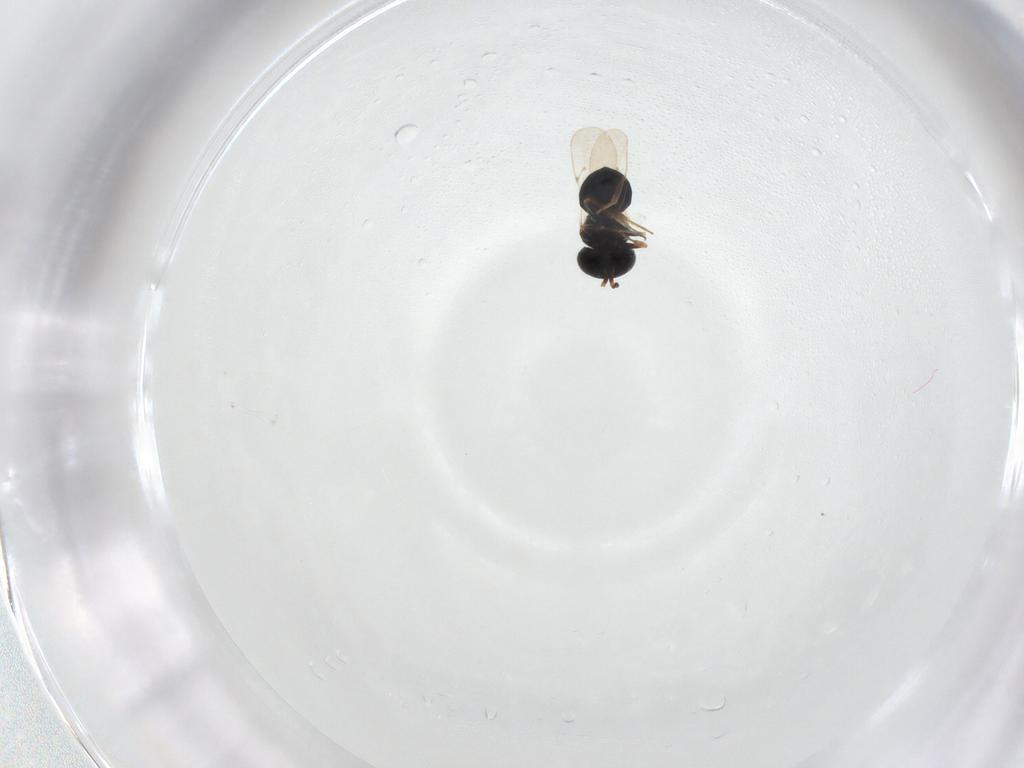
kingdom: Animalia
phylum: Arthropoda
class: Insecta
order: Hymenoptera
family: Scelionidae
